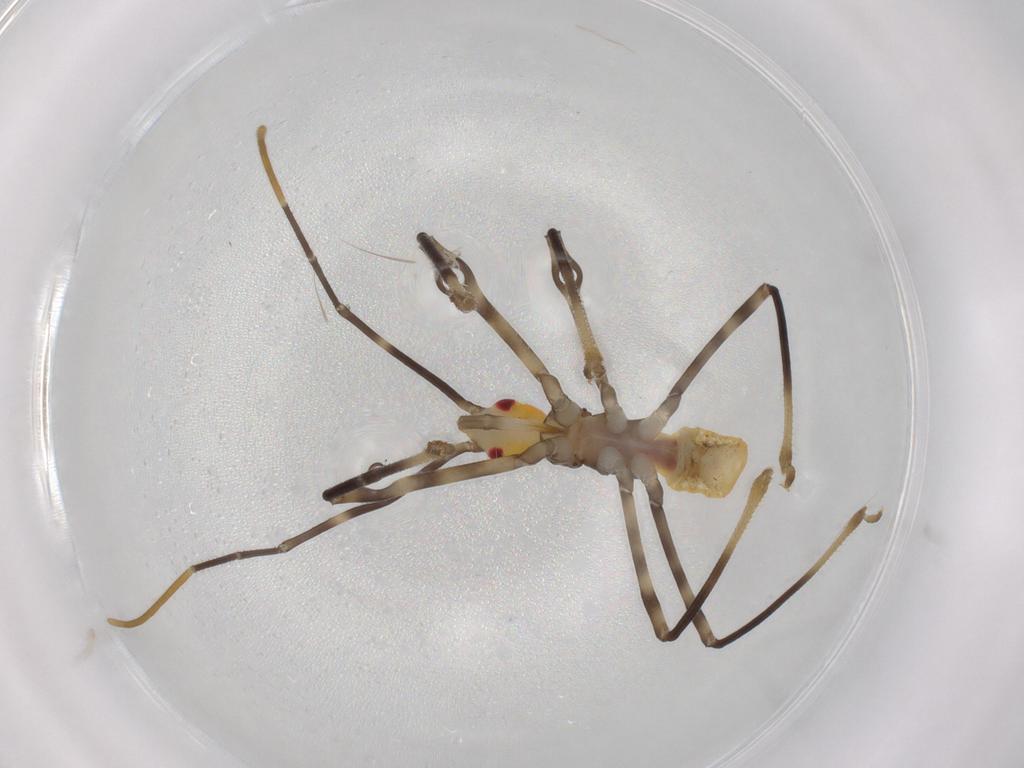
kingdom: Animalia
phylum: Arthropoda
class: Insecta
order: Hemiptera
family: Reduviidae
